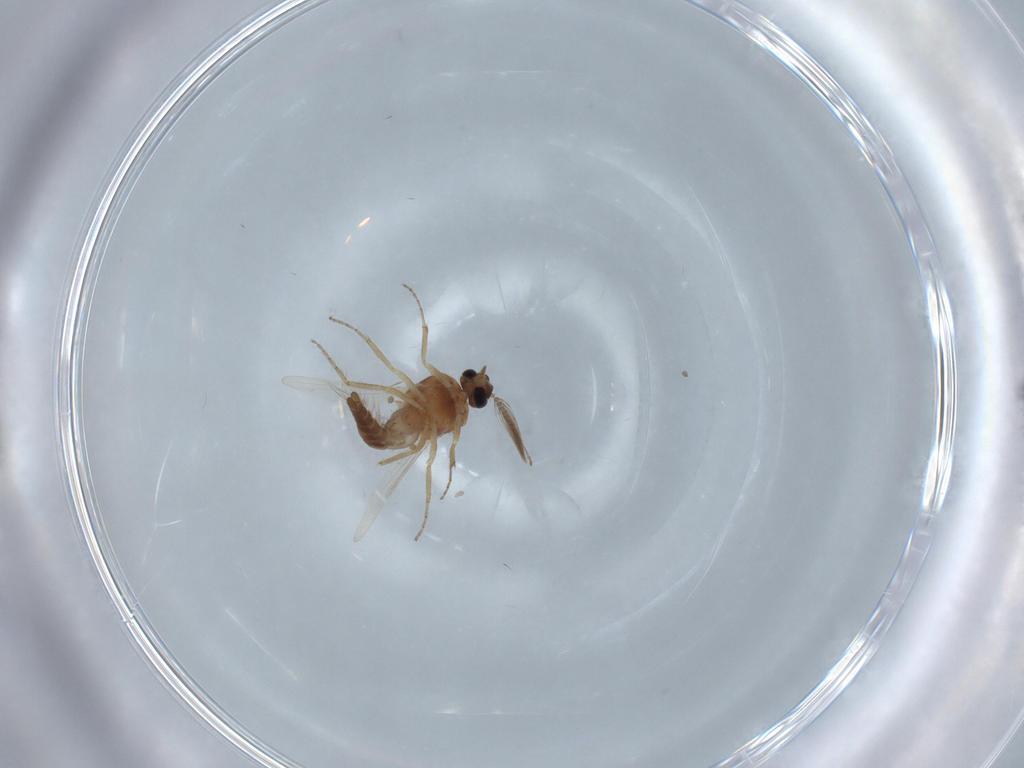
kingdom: Animalia
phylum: Arthropoda
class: Insecta
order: Diptera
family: Ceratopogonidae
